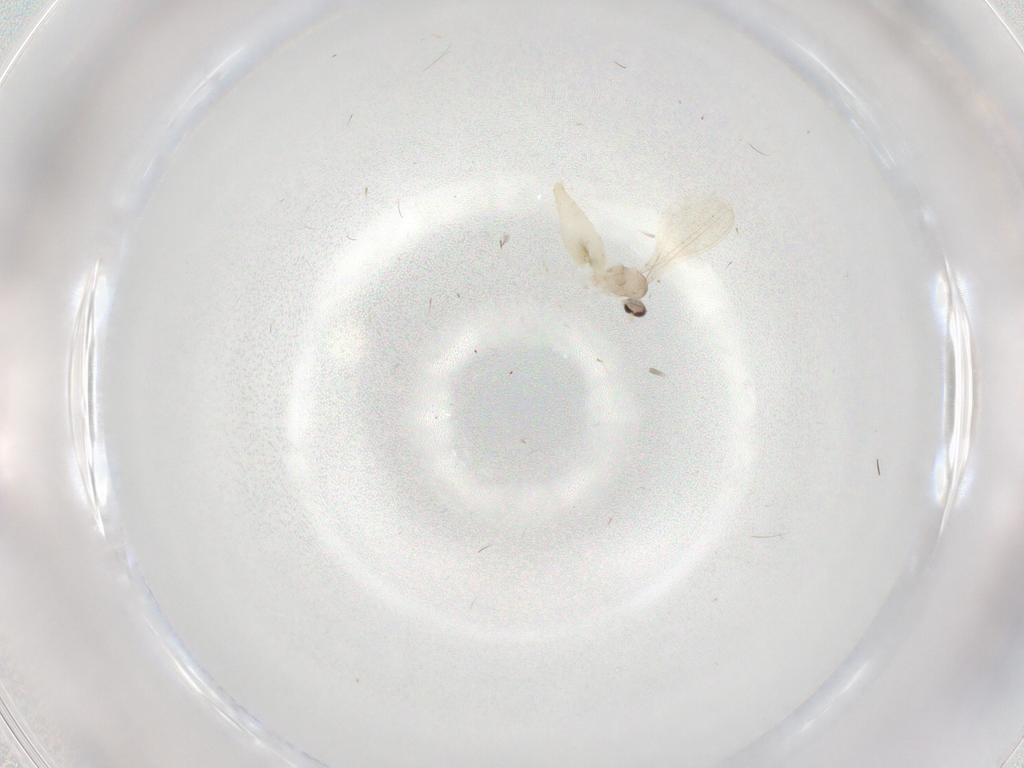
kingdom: Animalia
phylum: Arthropoda
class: Insecta
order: Diptera
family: Cecidomyiidae
